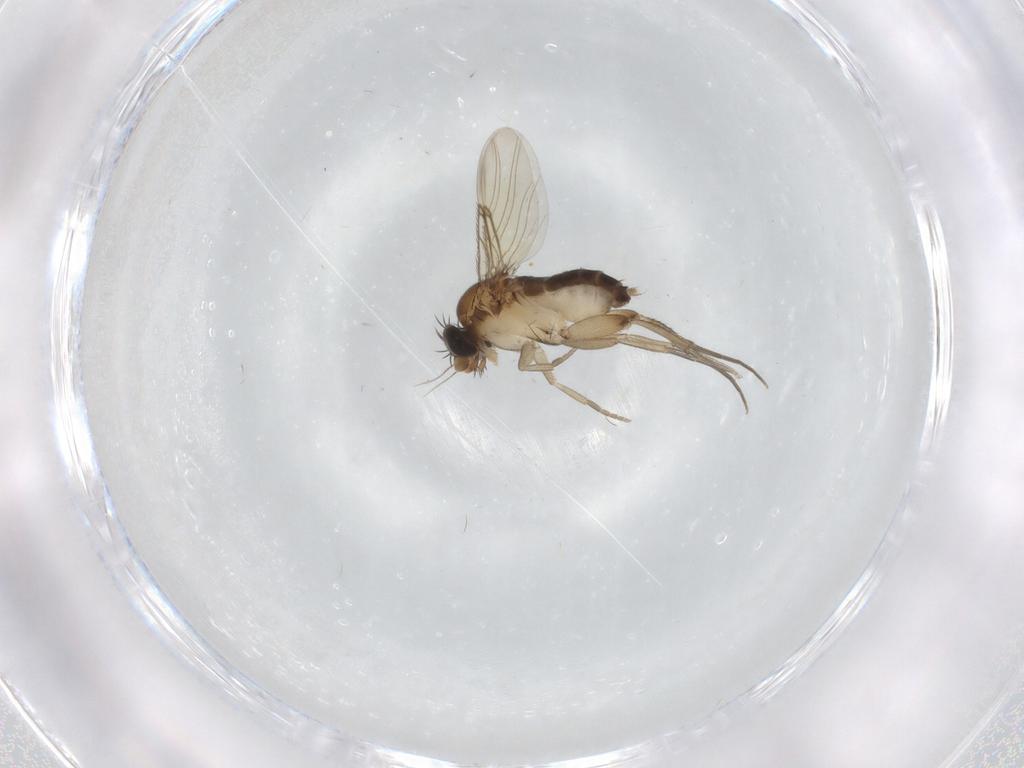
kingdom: Animalia
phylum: Arthropoda
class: Insecta
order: Diptera
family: Phoridae
